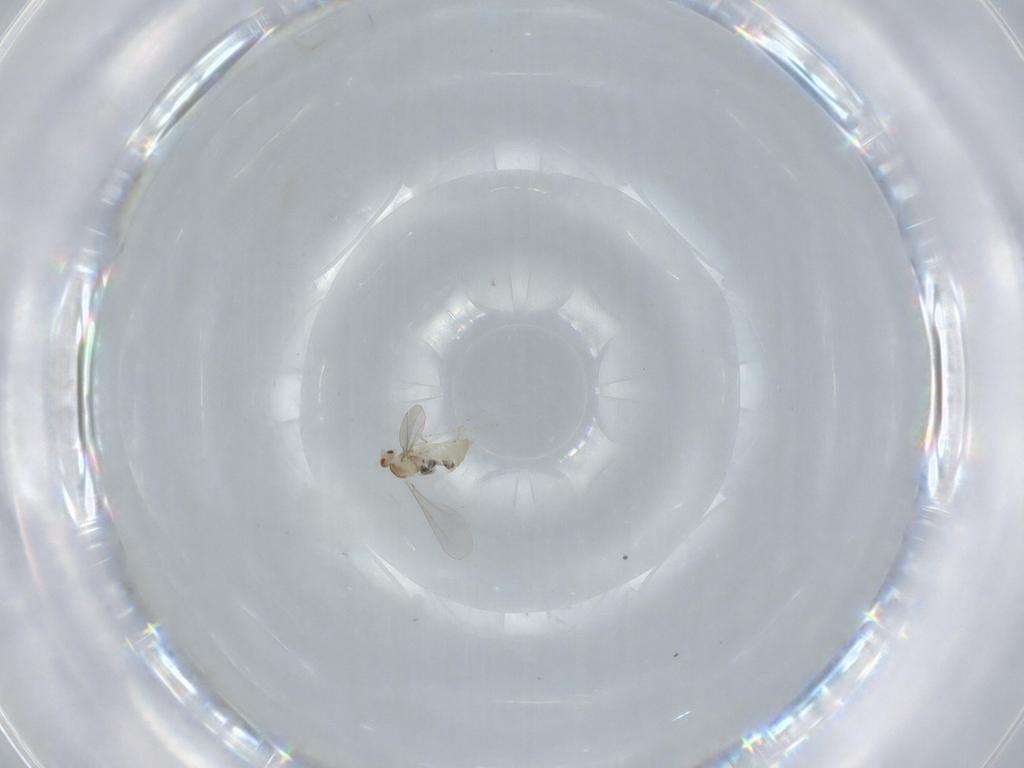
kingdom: Animalia
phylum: Arthropoda
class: Insecta
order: Diptera
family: Cecidomyiidae
